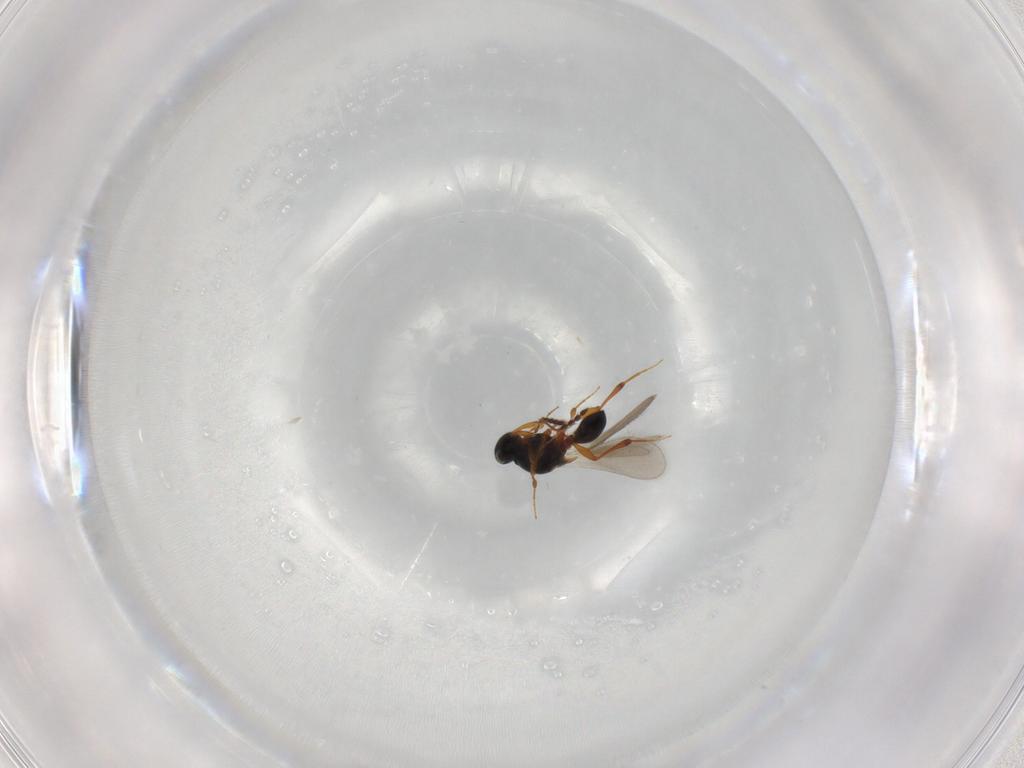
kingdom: Animalia
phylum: Arthropoda
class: Insecta
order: Hymenoptera
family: Platygastridae
